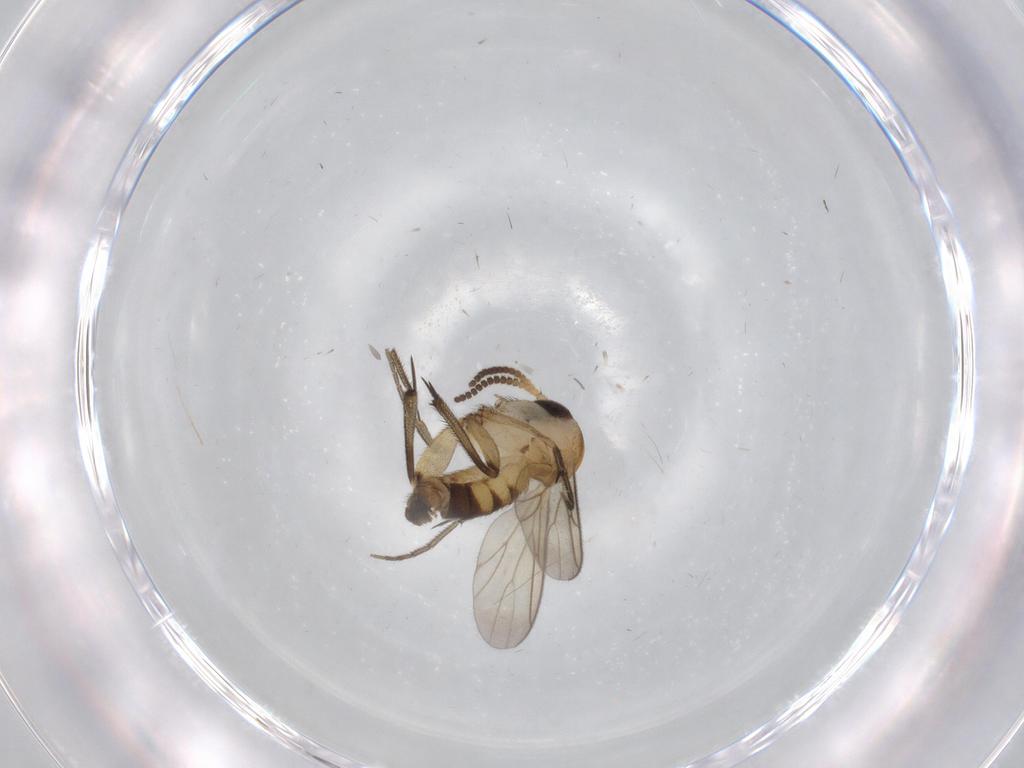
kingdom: Animalia
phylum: Arthropoda
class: Insecta
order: Diptera
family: Mycetophilidae
